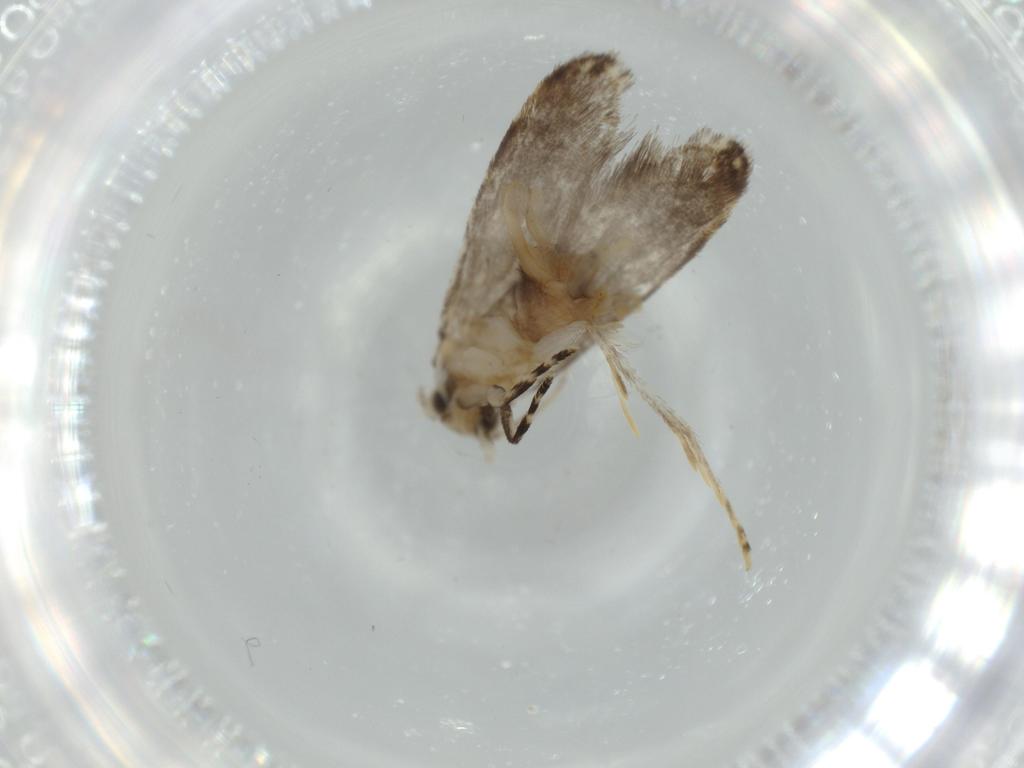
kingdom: Animalia
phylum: Arthropoda
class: Insecta
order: Lepidoptera
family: Tineidae
